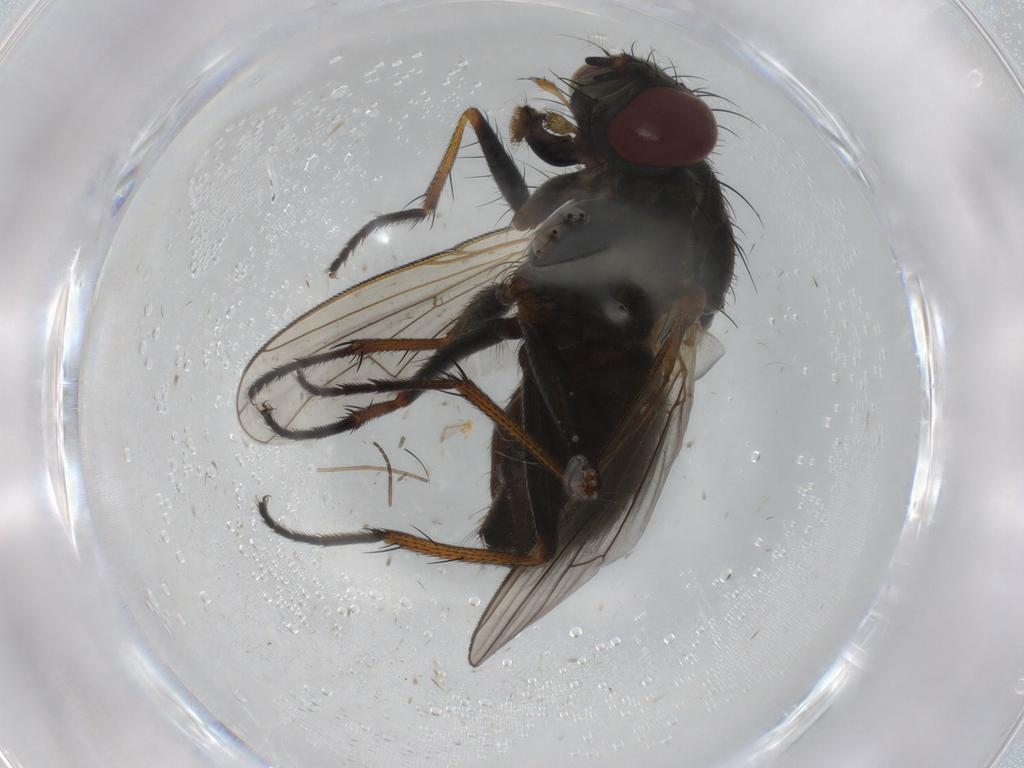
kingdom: Animalia
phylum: Arthropoda
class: Insecta
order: Diptera
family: Muscidae
